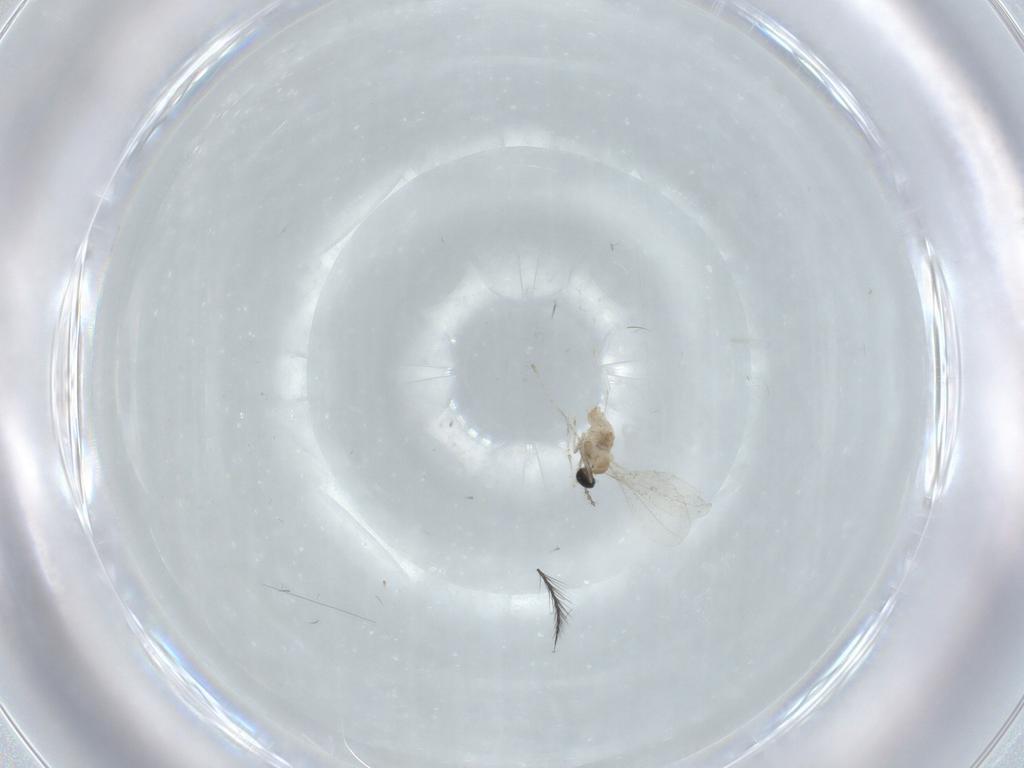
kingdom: Animalia
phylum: Arthropoda
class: Insecta
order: Diptera
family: Cecidomyiidae
